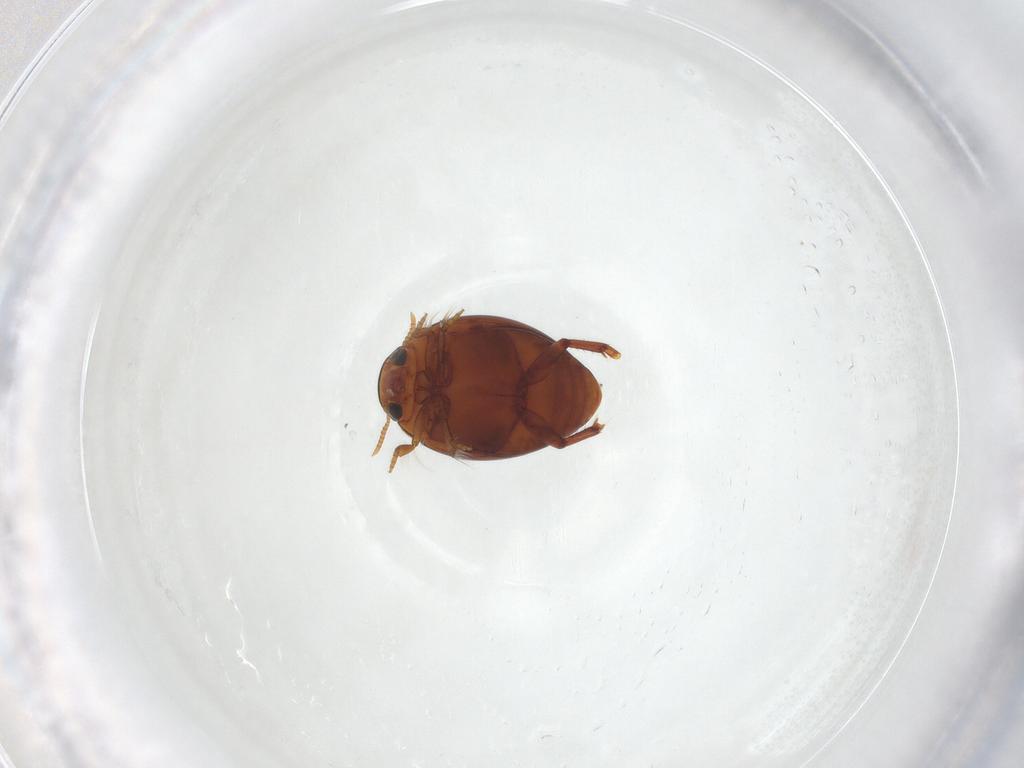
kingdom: Animalia
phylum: Arthropoda
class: Insecta
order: Coleoptera
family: Dytiscidae
